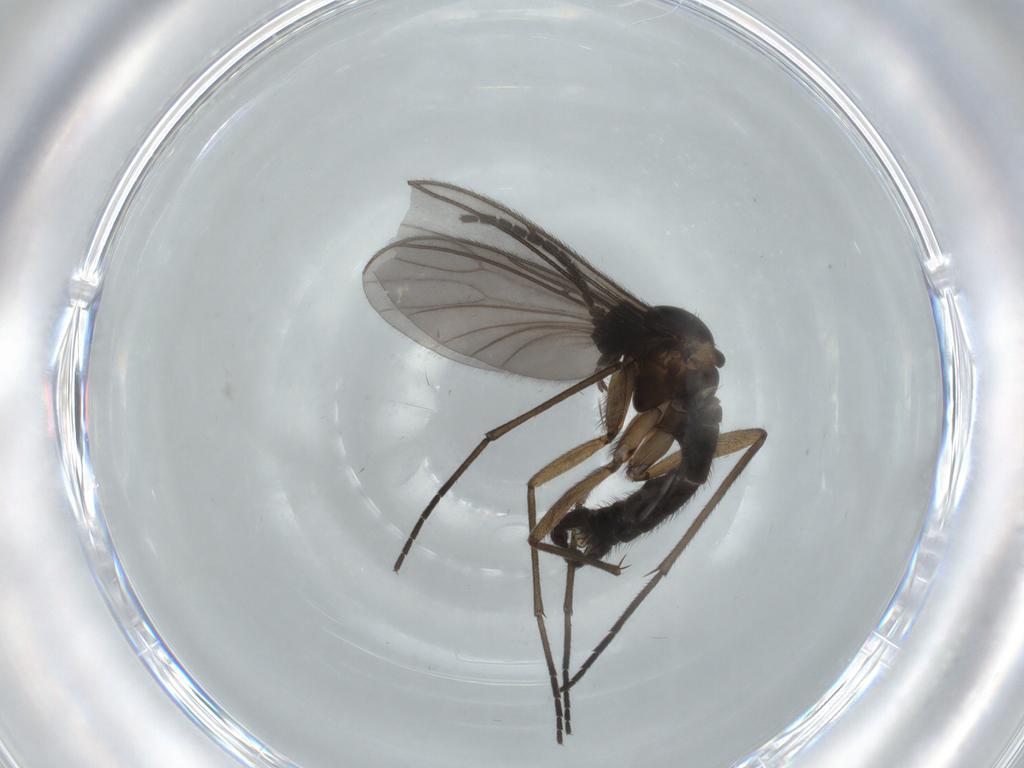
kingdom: Animalia
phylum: Arthropoda
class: Insecta
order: Diptera
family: Sciaridae
